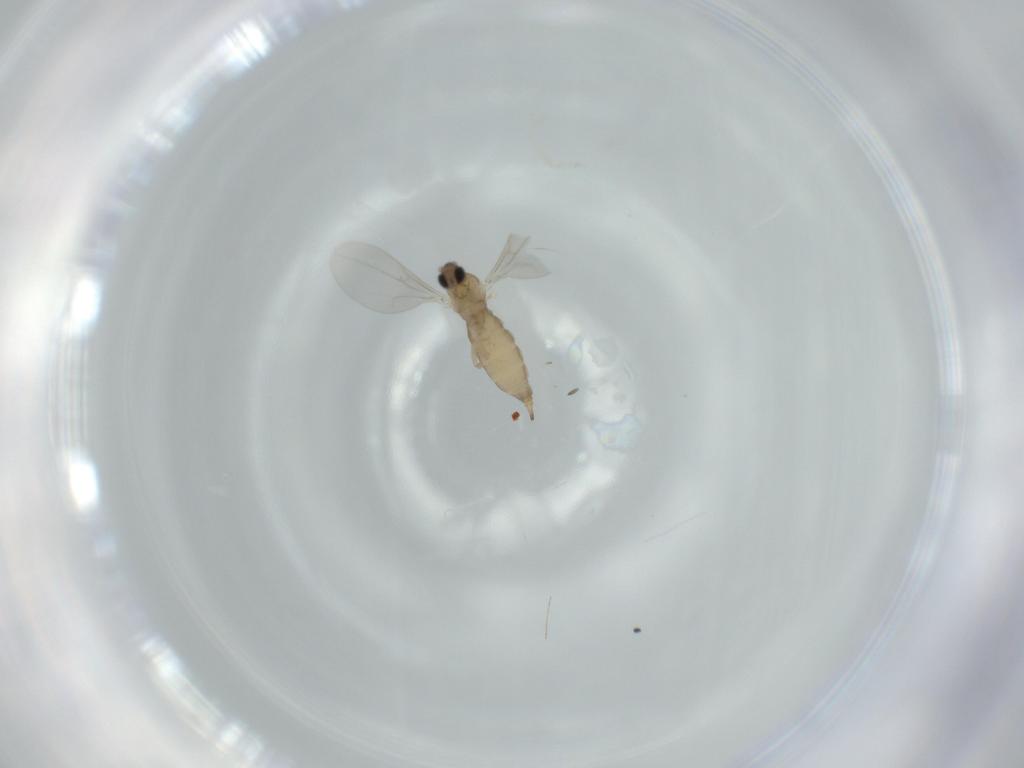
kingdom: Animalia
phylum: Arthropoda
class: Insecta
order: Diptera
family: Cecidomyiidae
